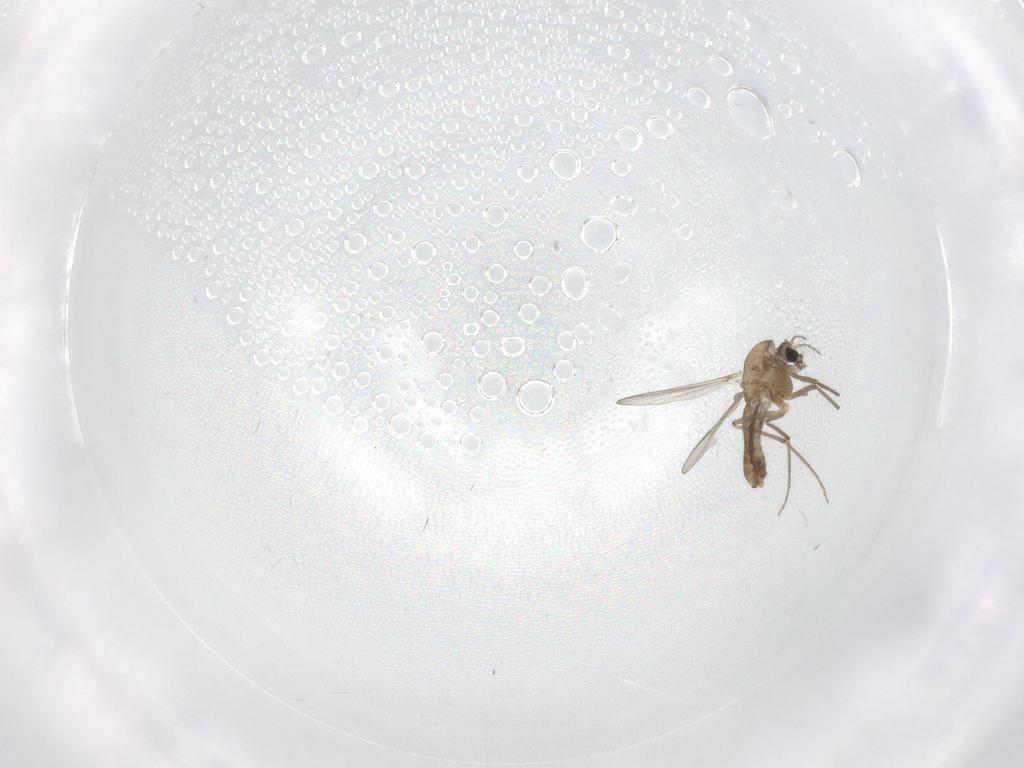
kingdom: Animalia
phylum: Arthropoda
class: Insecta
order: Diptera
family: Chironomidae
